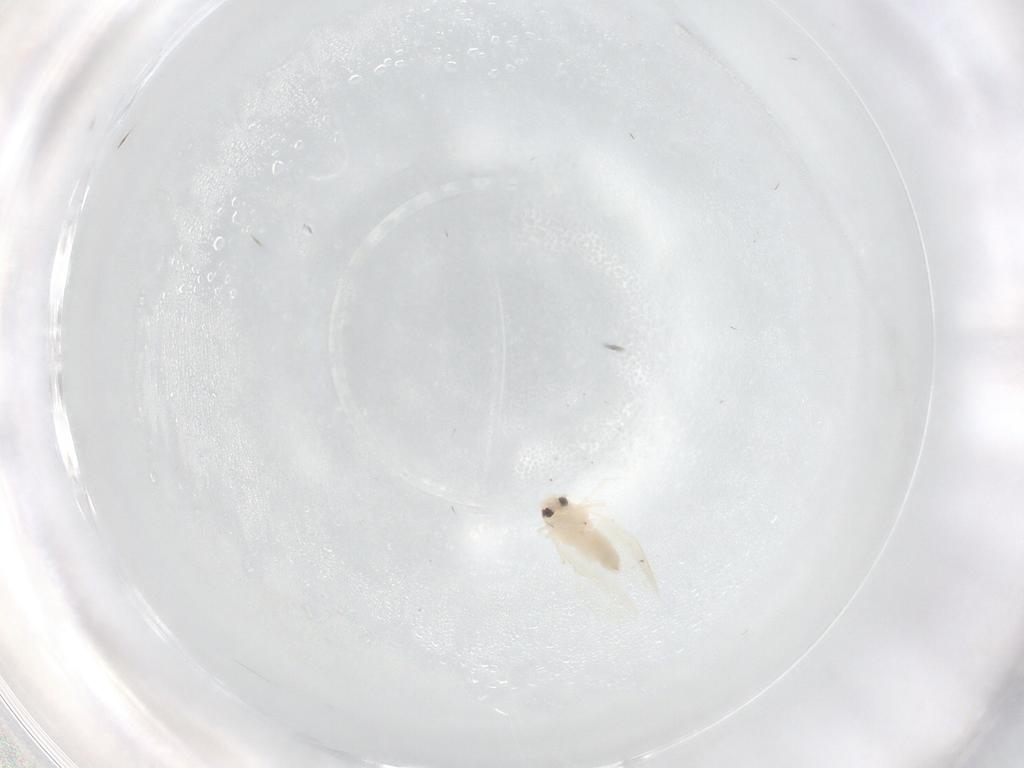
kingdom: Animalia
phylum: Arthropoda
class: Insecta
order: Hemiptera
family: Aleyrodidae
